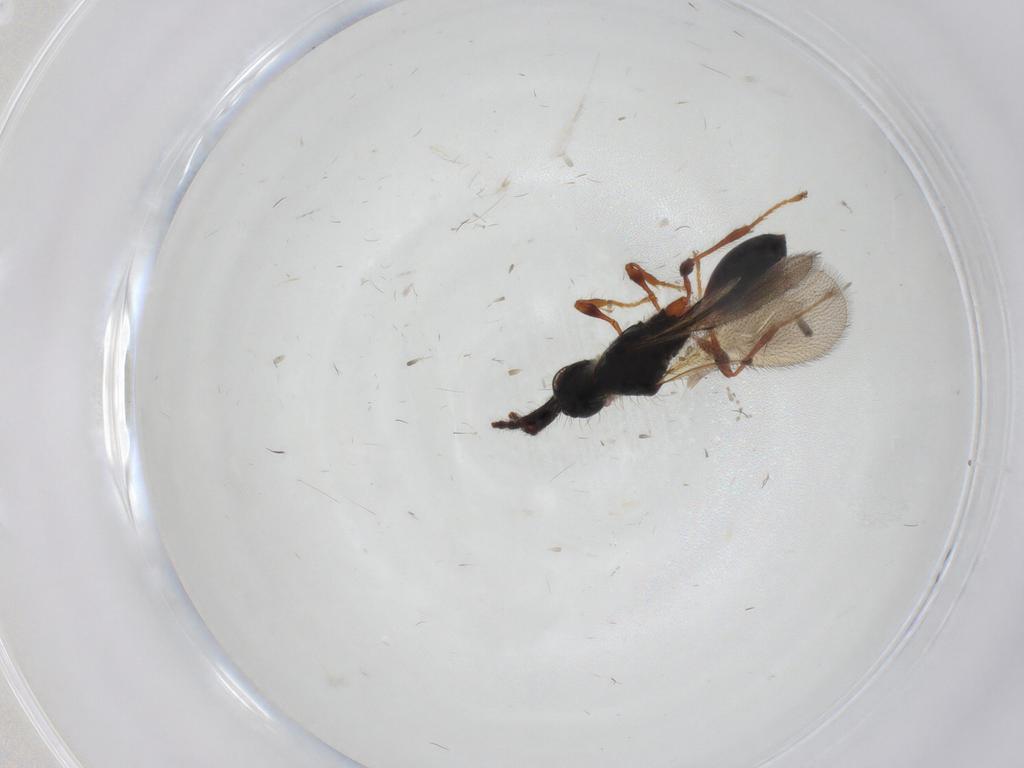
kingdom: Animalia
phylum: Arthropoda
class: Insecta
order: Hymenoptera
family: Diapriidae
